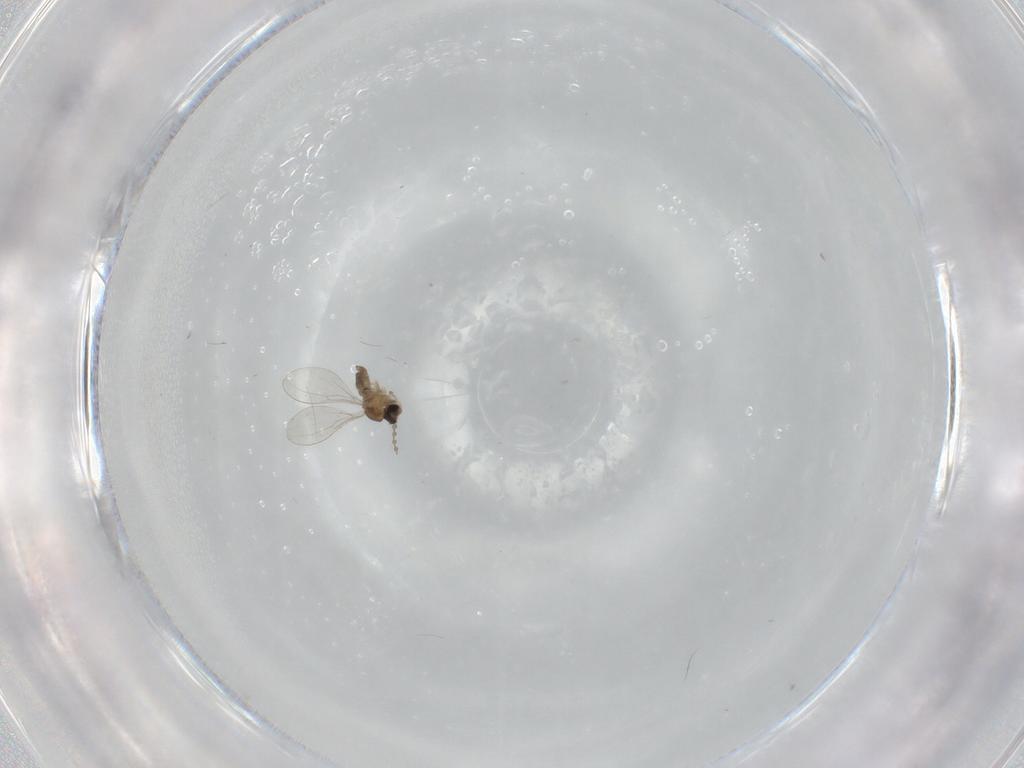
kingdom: Animalia
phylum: Arthropoda
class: Insecta
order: Diptera
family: Cecidomyiidae
